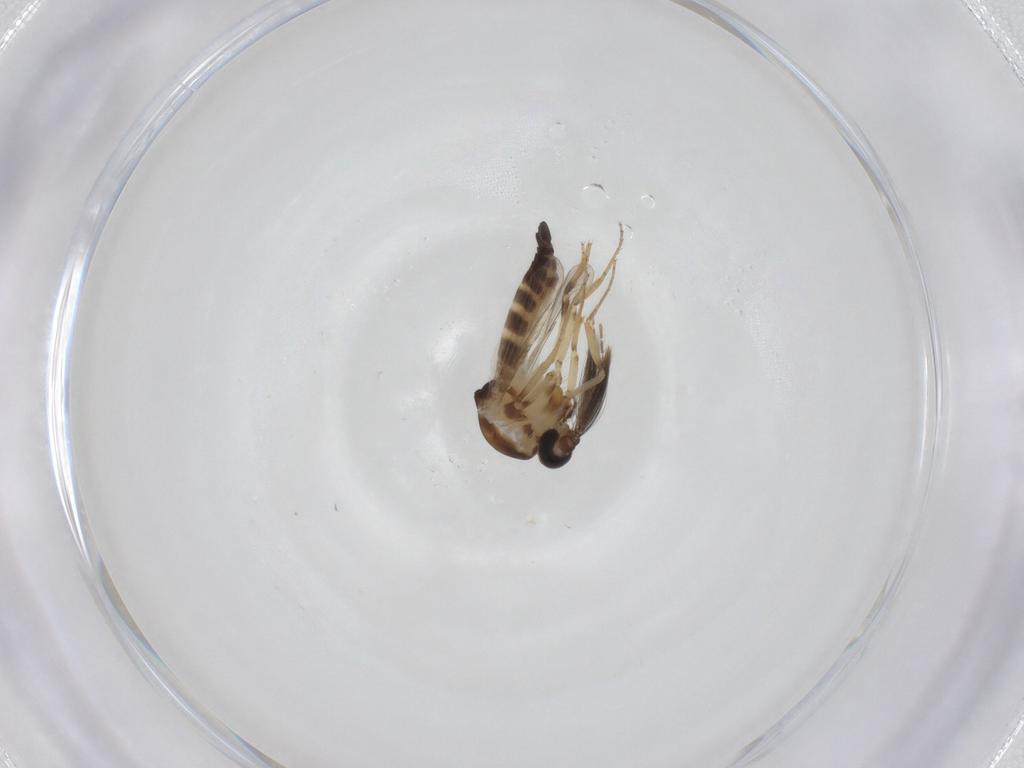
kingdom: Animalia
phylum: Arthropoda
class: Insecta
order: Diptera
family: Ceratopogonidae
